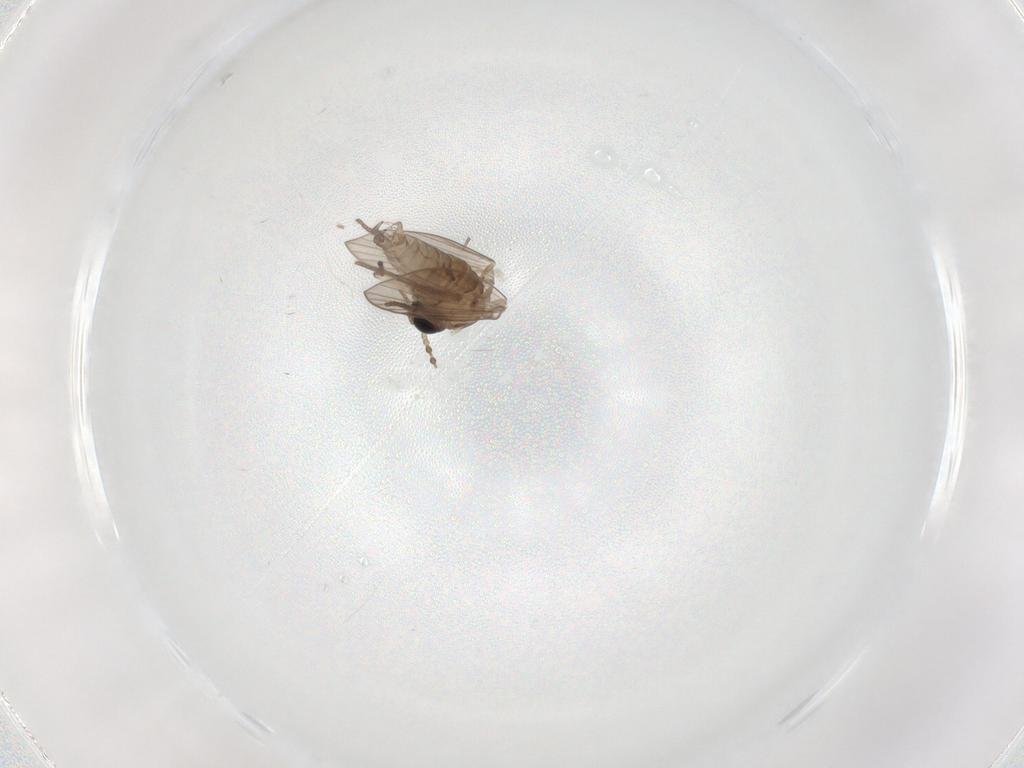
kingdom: Animalia
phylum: Arthropoda
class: Insecta
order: Diptera
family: Psychodidae
